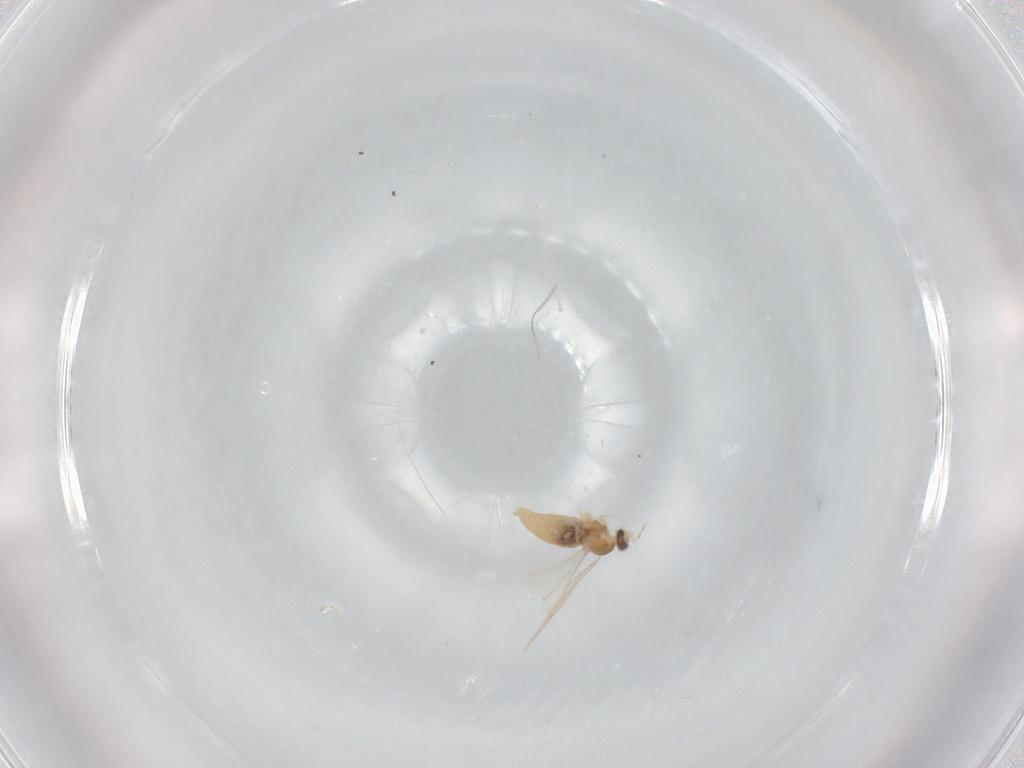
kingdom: Animalia
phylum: Arthropoda
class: Insecta
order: Diptera
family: Cecidomyiidae
